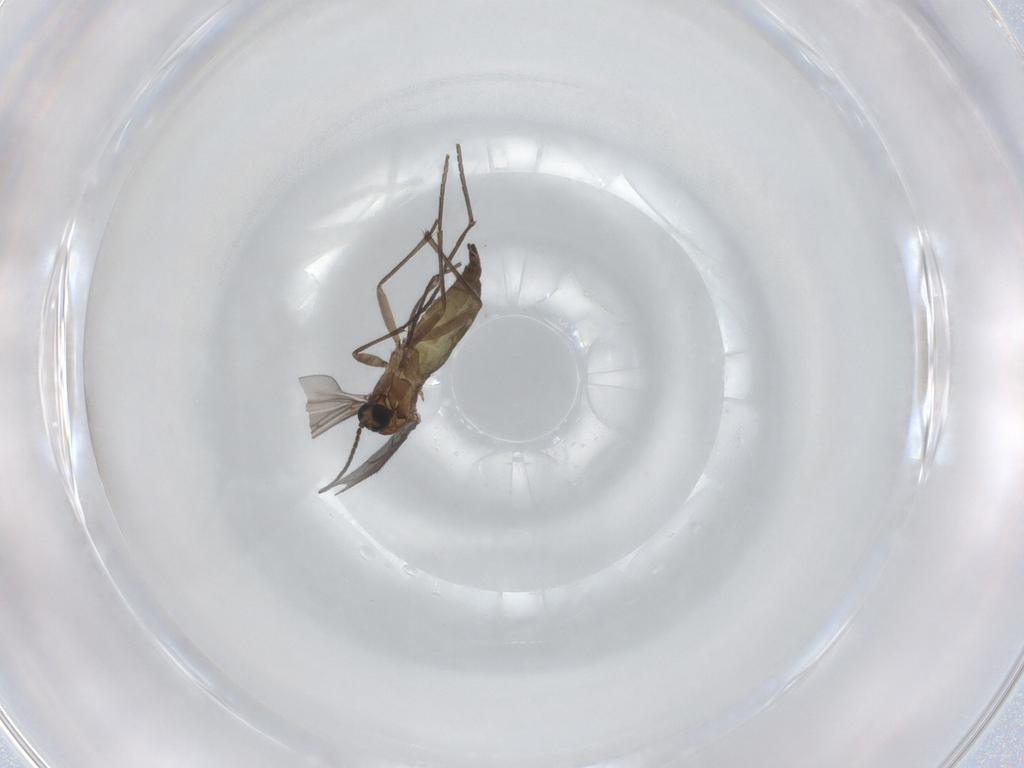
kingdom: Animalia
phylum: Arthropoda
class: Insecta
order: Diptera
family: Sciaridae
